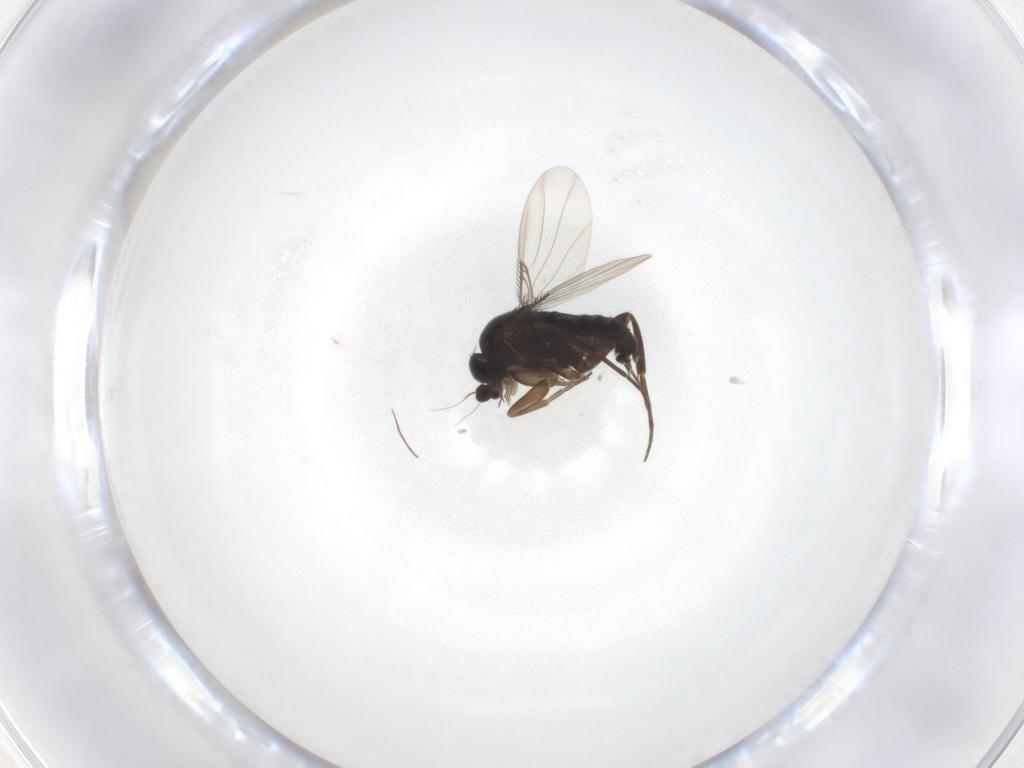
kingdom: Animalia
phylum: Arthropoda
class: Insecta
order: Diptera
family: Phoridae
